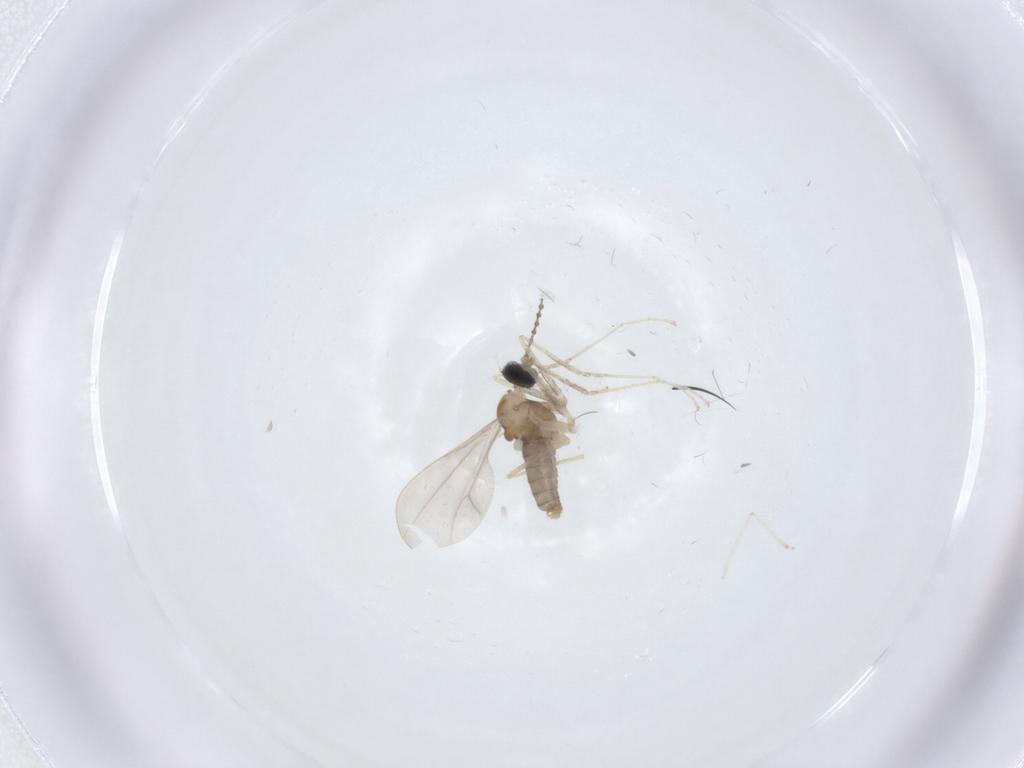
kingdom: Animalia
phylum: Arthropoda
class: Insecta
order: Diptera
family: Cecidomyiidae
